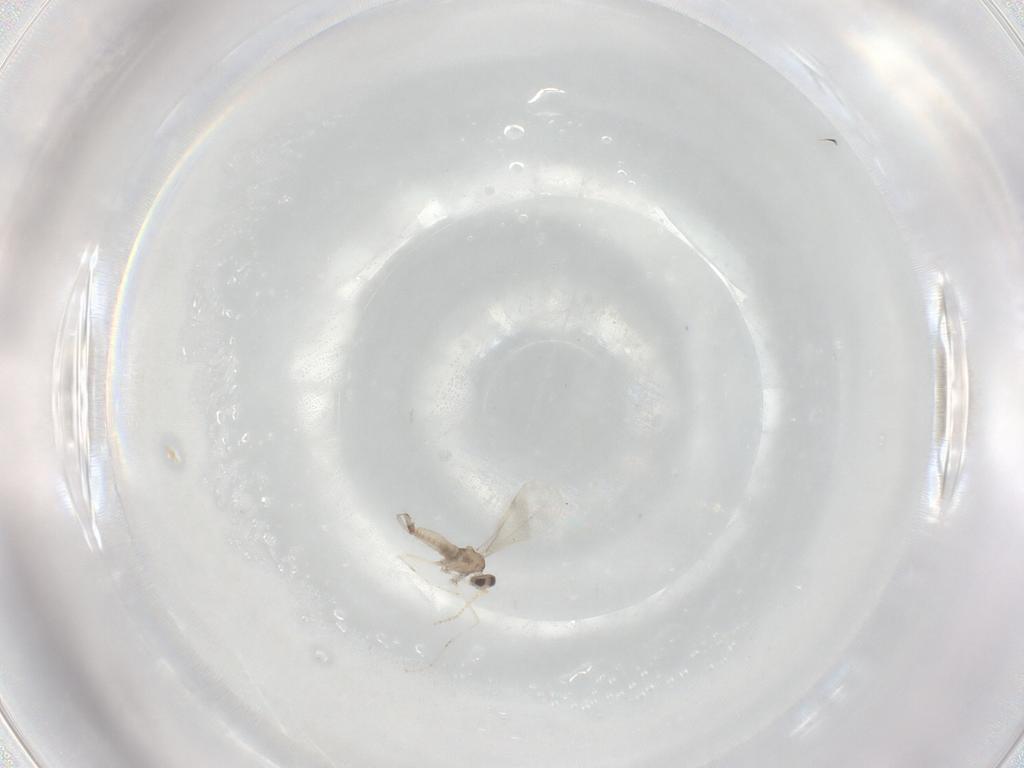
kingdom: Animalia
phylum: Arthropoda
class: Insecta
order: Diptera
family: Cecidomyiidae
